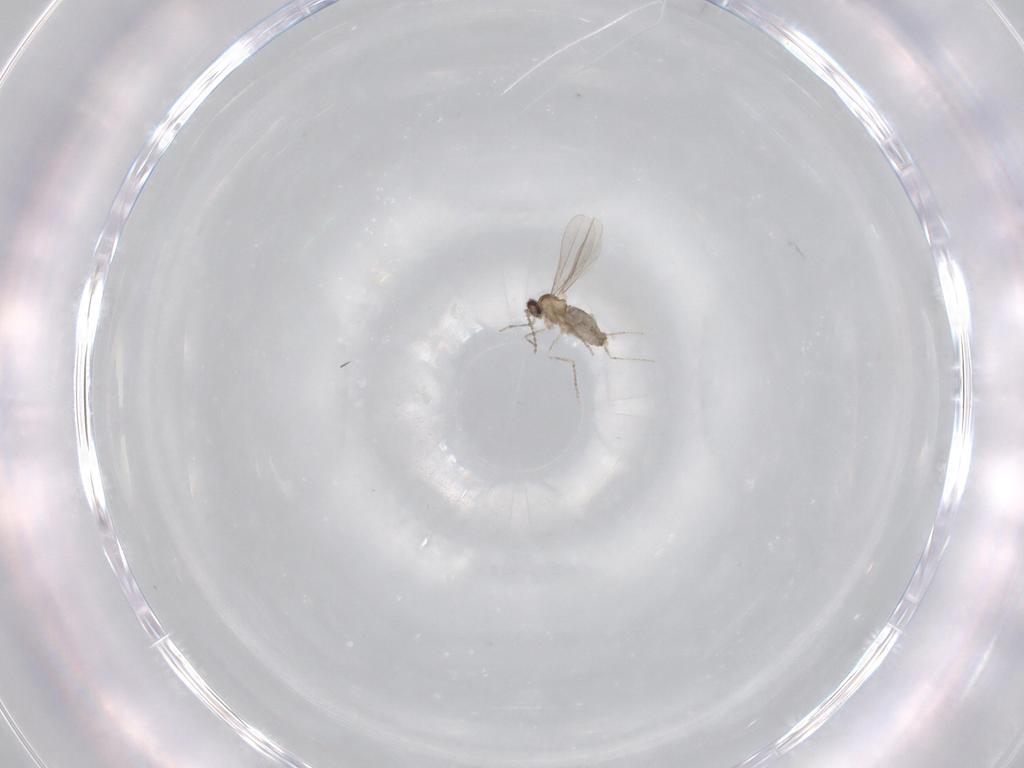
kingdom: Animalia
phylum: Arthropoda
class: Insecta
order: Diptera
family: Cecidomyiidae
